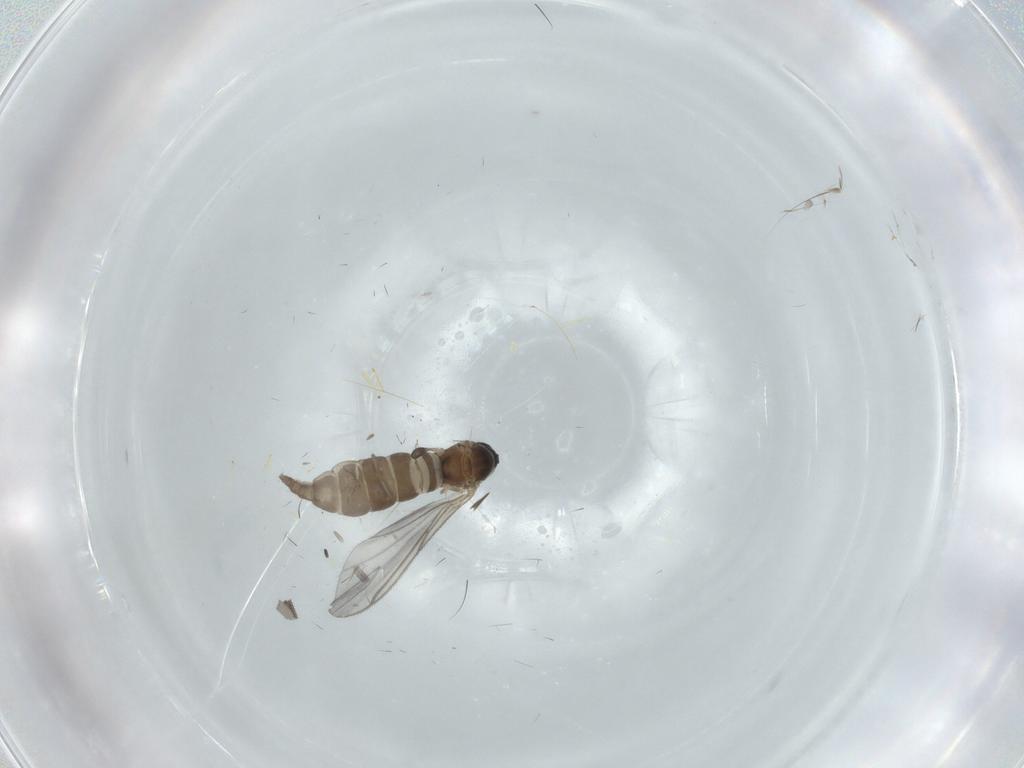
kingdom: Animalia
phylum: Arthropoda
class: Insecta
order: Diptera
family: Sciaridae
